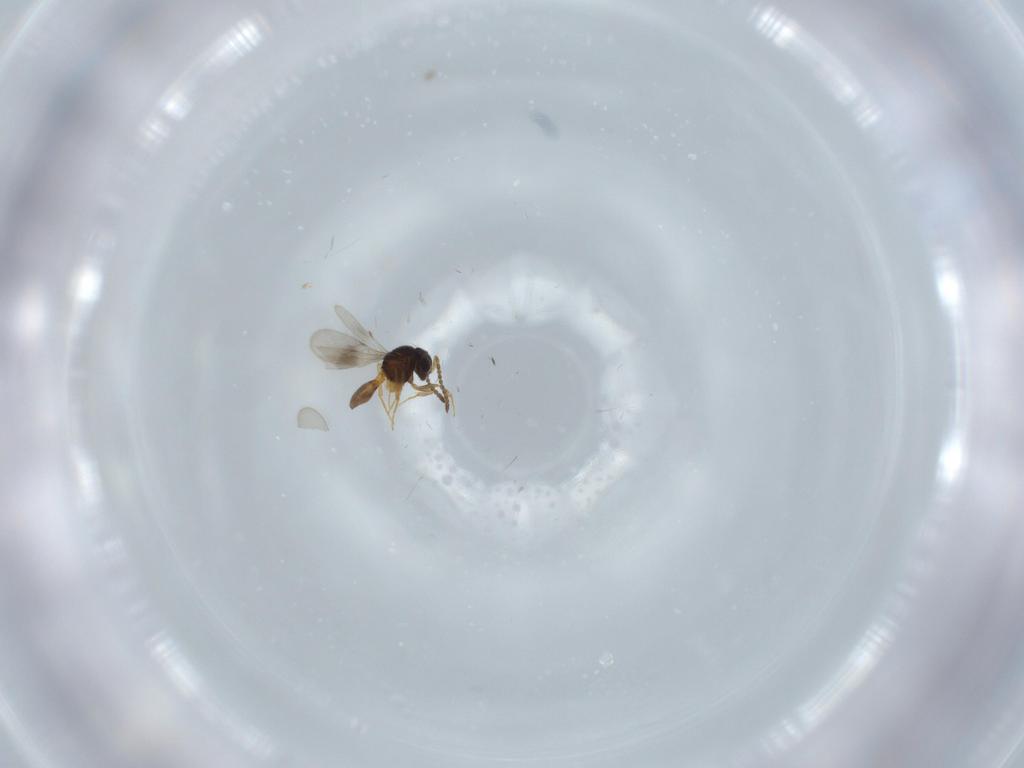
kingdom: Animalia
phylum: Arthropoda
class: Insecta
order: Hymenoptera
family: Scelionidae
